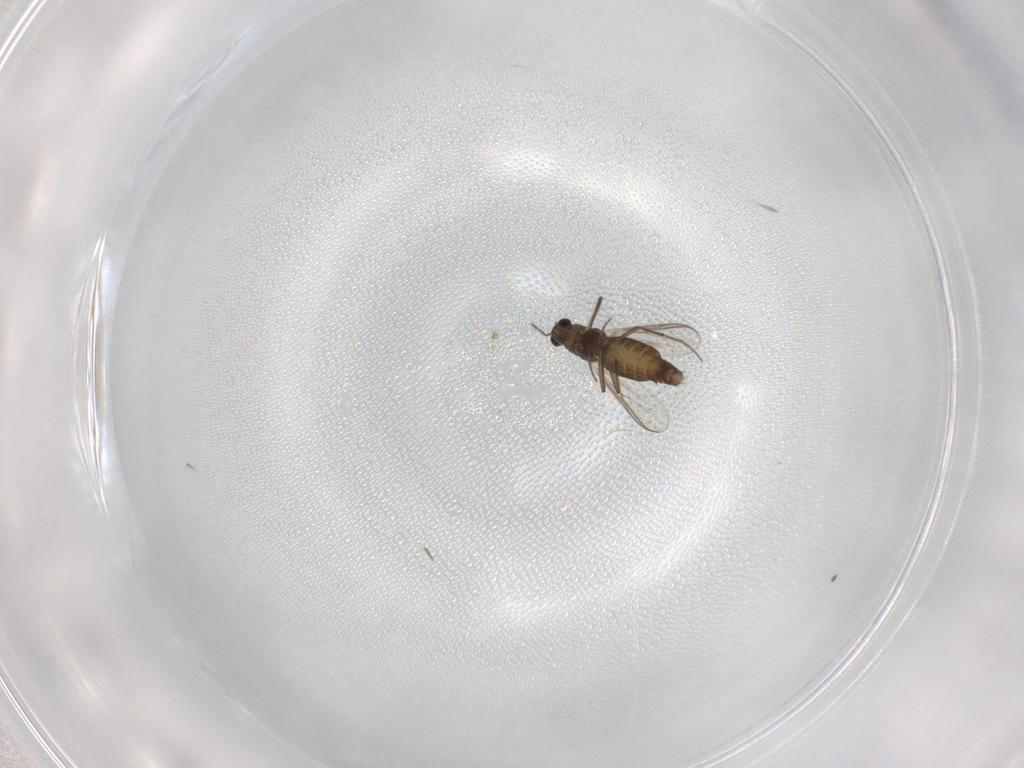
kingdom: Animalia
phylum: Arthropoda
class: Insecta
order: Diptera
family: Chironomidae
